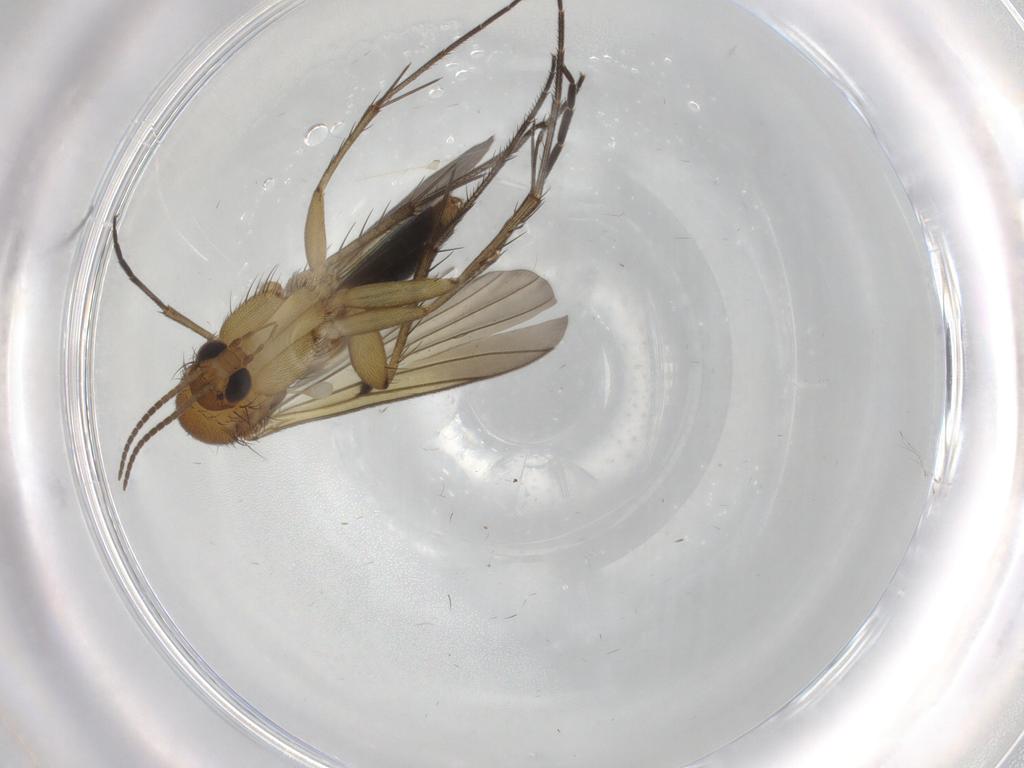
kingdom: Animalia
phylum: Arthropoda
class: Insecta
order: Diptera
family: Mycetophilidae
